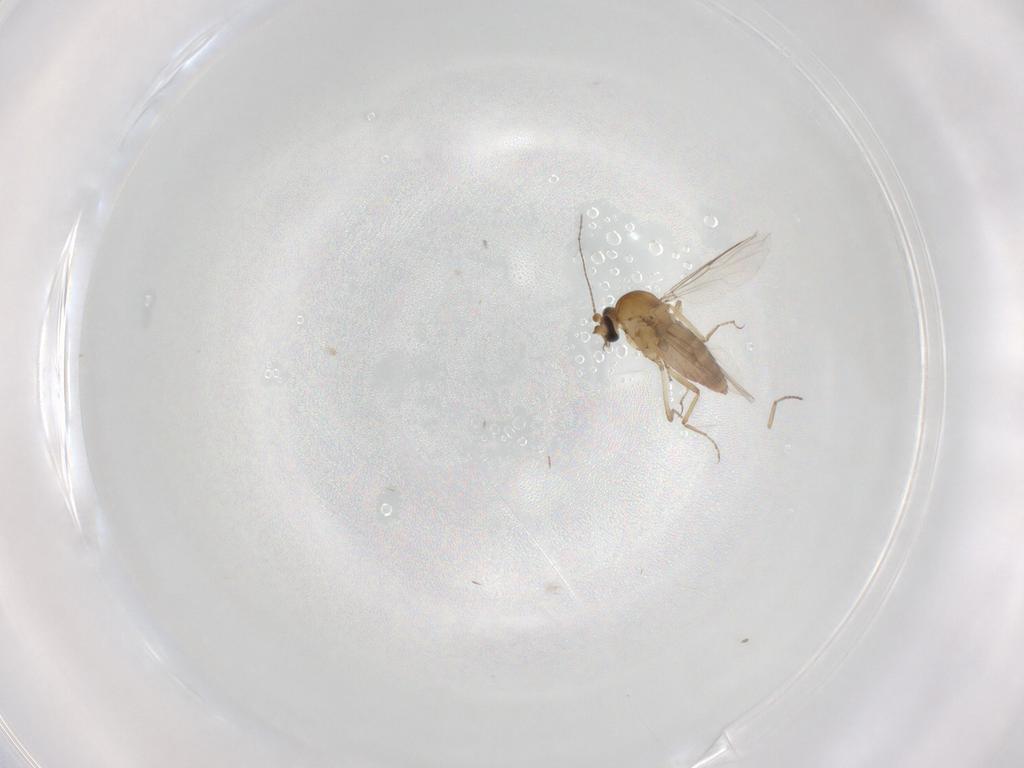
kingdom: Animalia
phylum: Arthropoda
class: Insecta
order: Diptera
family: Ceratopogonidae
